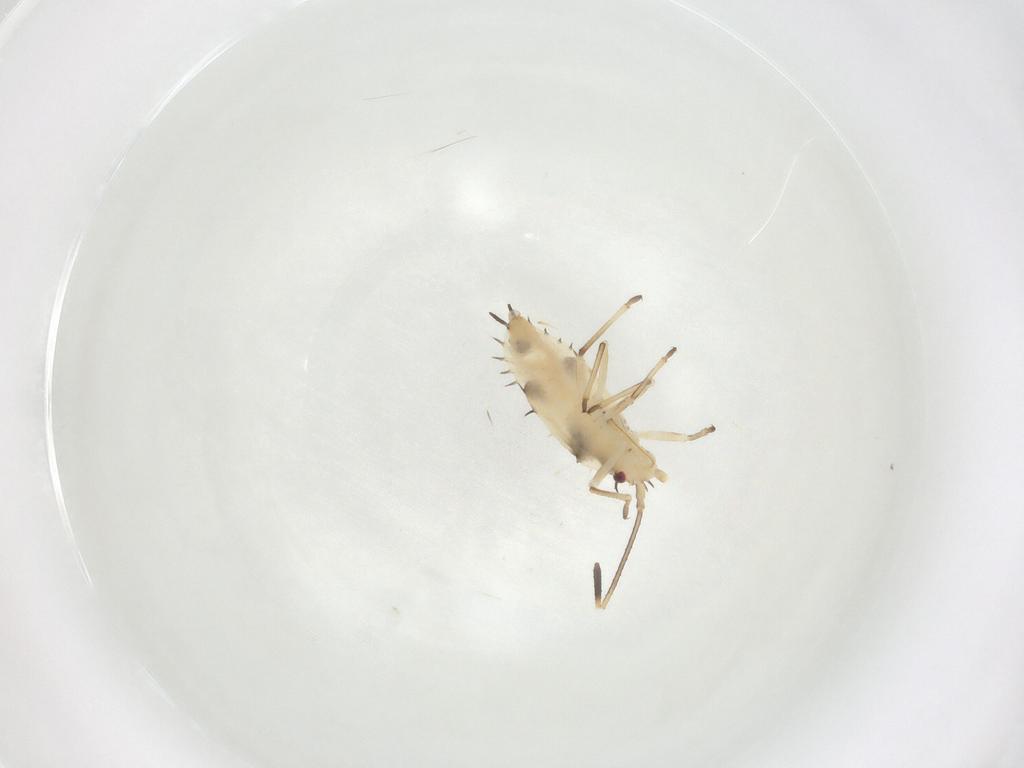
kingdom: Animalia
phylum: Arthropoda
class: Insecta
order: Hemiptera
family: Tingidae
